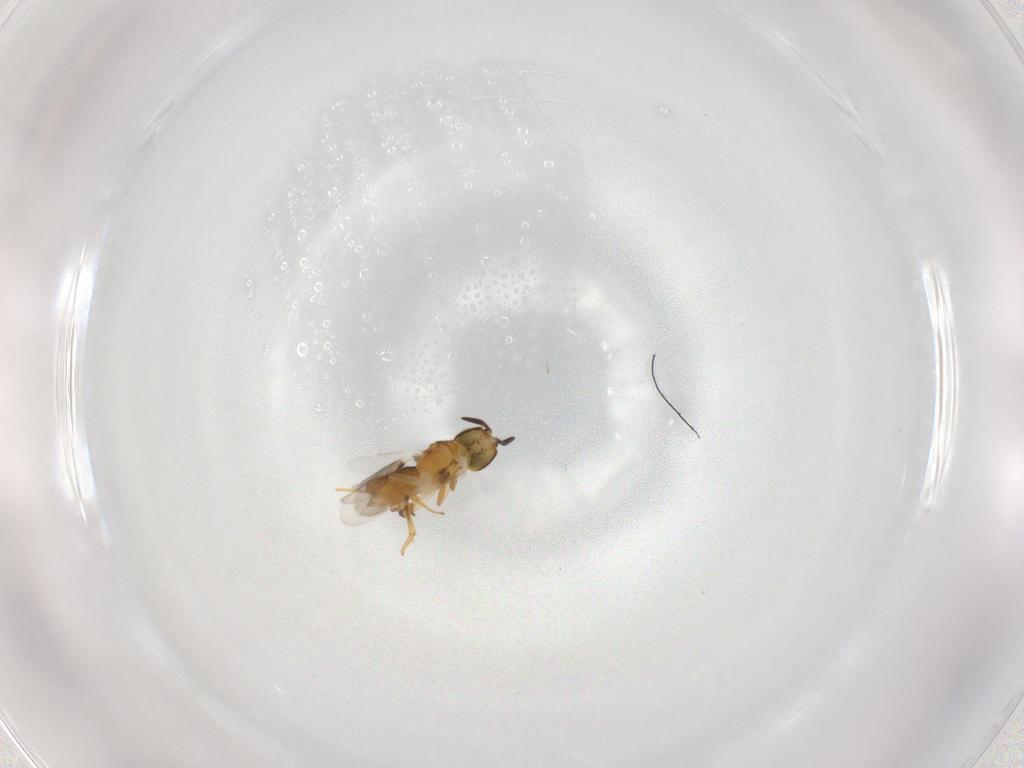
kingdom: Animalia
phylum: Arthropoda
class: Insecta
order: Hymenoptera
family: Encyrtidae
